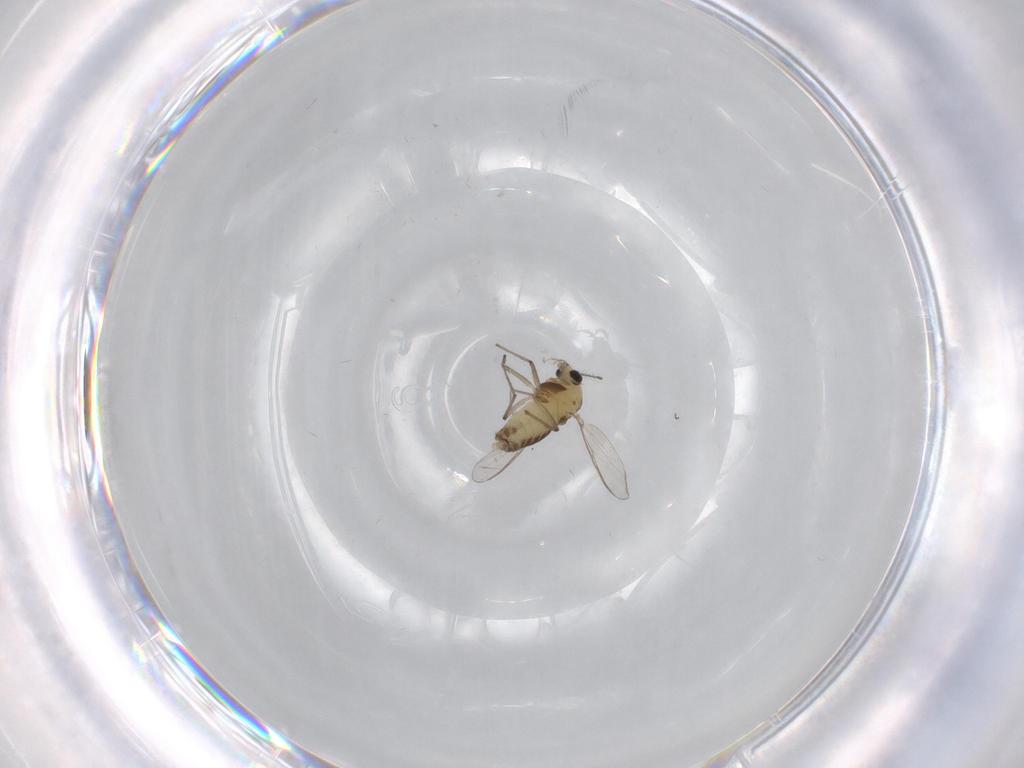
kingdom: Animalia
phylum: Arthropoda
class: Insecta
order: Diptera
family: Chironomidae
